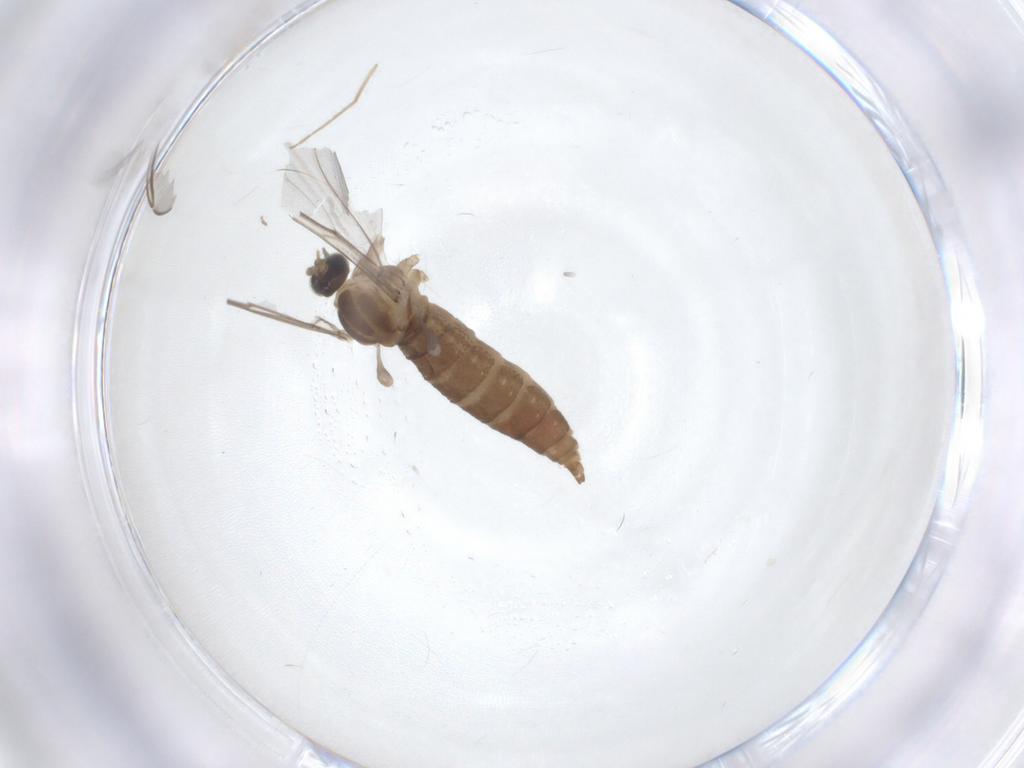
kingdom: Animalia
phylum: Arthropoda
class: Insecta
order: Diptera
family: Cecidomyiidae
